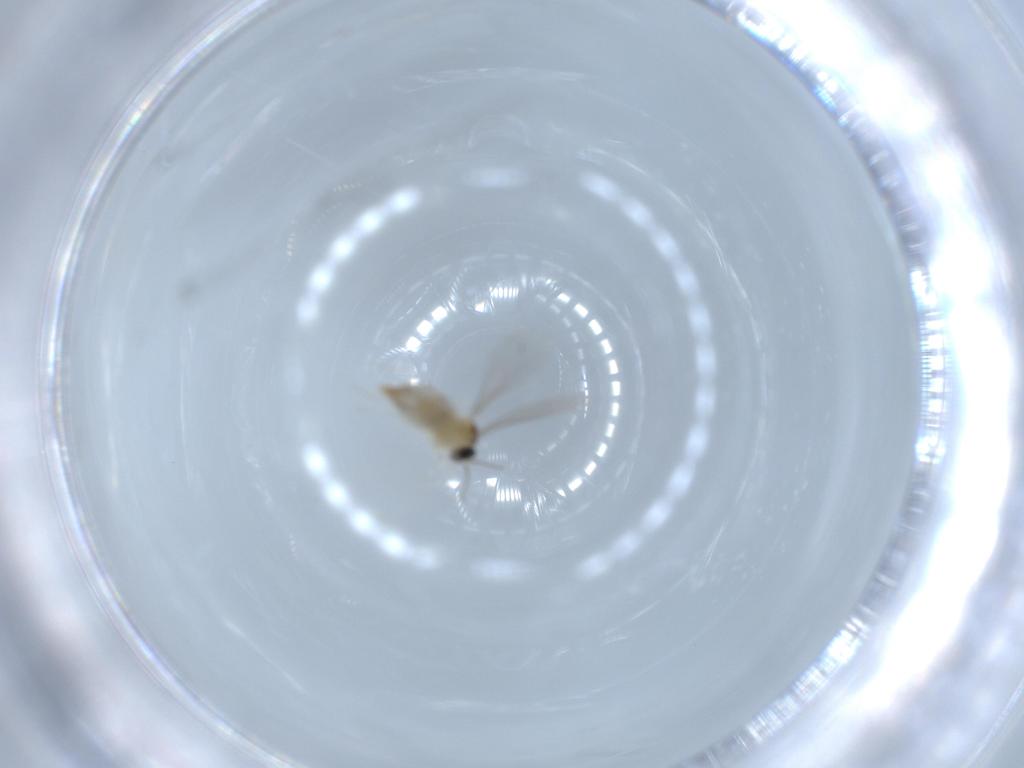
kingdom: Animalia
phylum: Arthropoda
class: Insecta
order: Diptera
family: Ceratopogonidae
